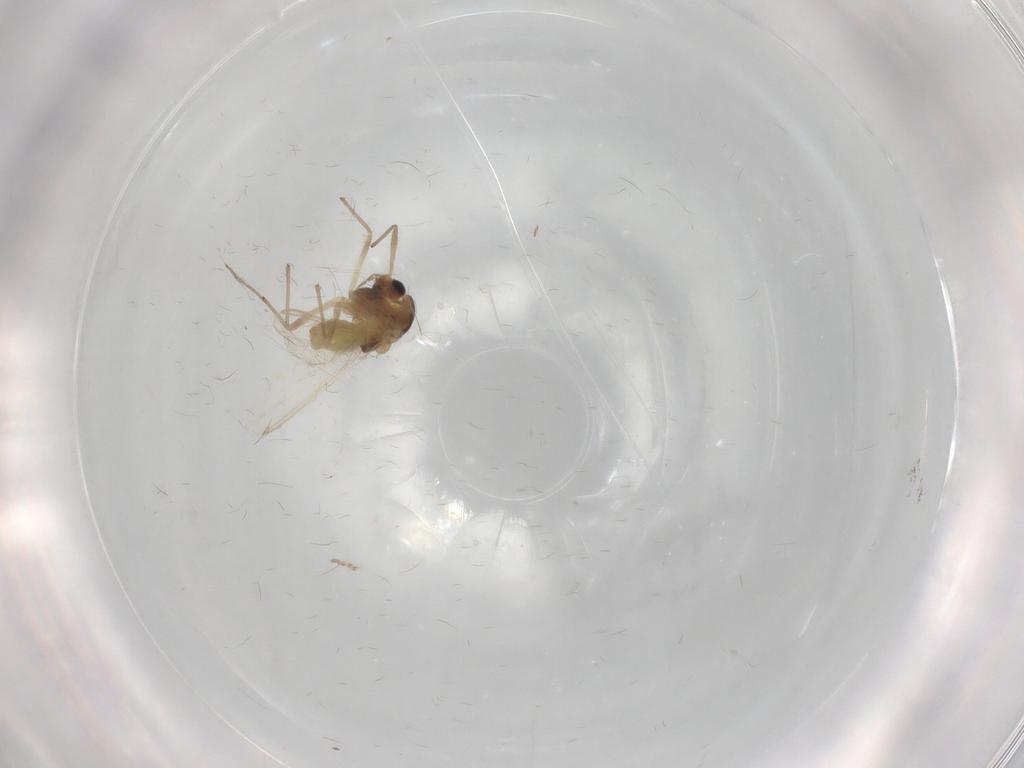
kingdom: Animalia
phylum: Arthropoda
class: Insecta
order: Diptera
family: Chironomidae
